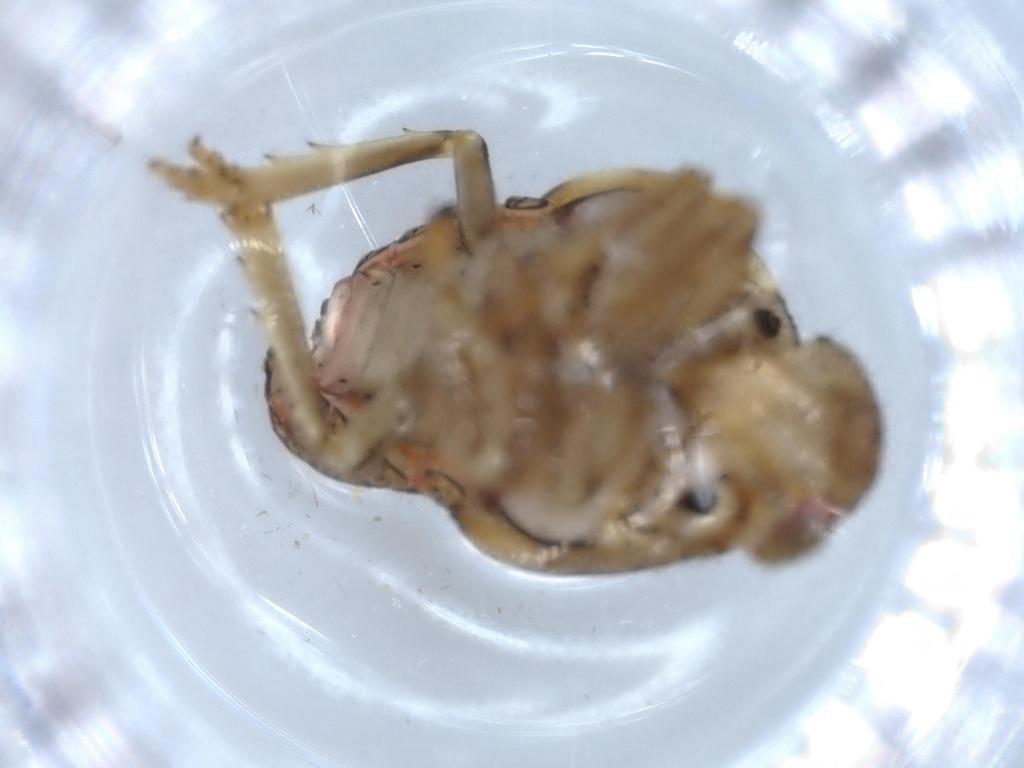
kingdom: Animalia
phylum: Arthropoda
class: Insecta
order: Hemiptera
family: Issidae
